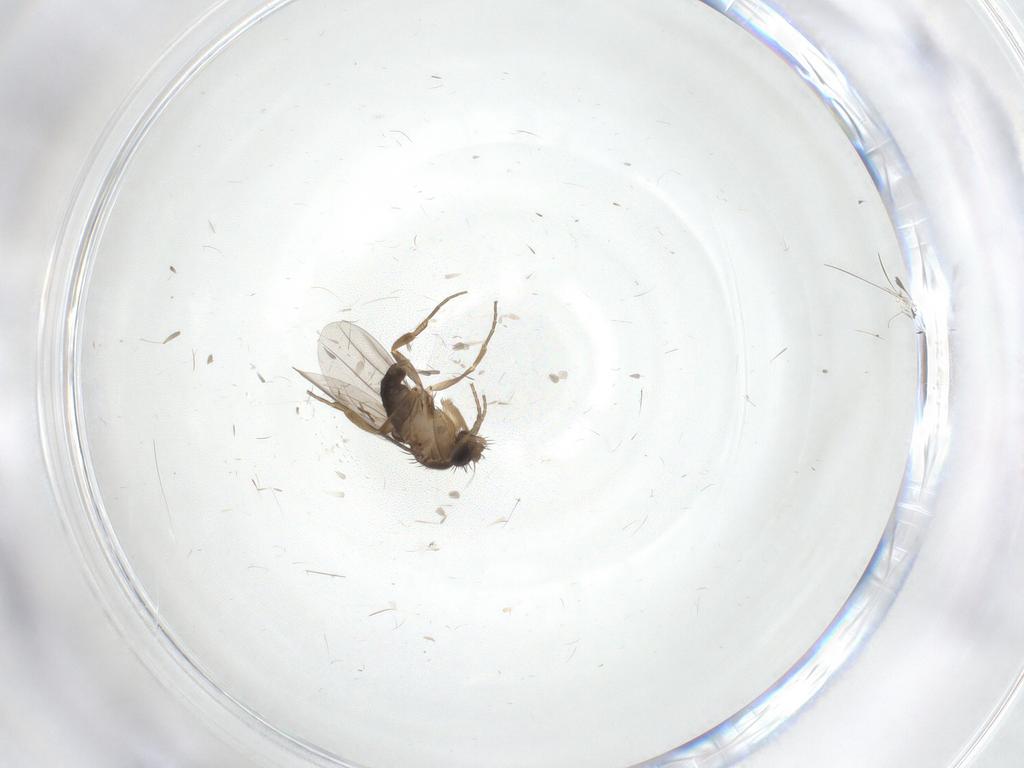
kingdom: Animalia
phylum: Arthropoda
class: Insecta
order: Diptera
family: Cecidomyiidae
